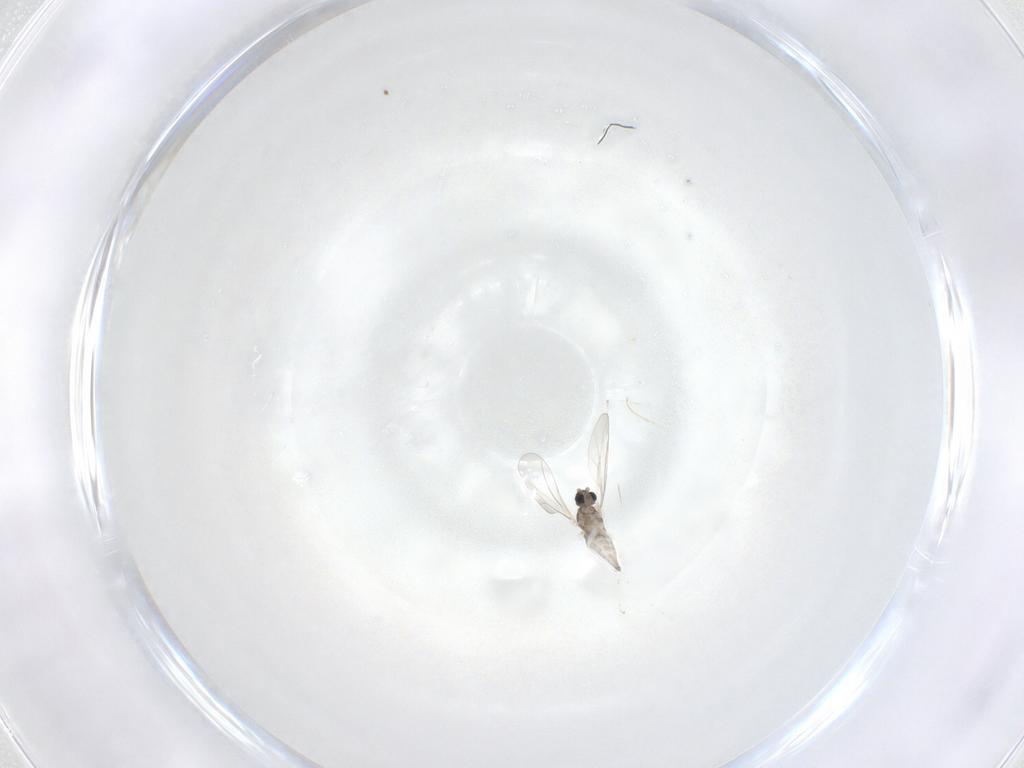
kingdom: Animalia
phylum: Arthropoda
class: Insecta
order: Diptera
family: Cecidomyiidae
